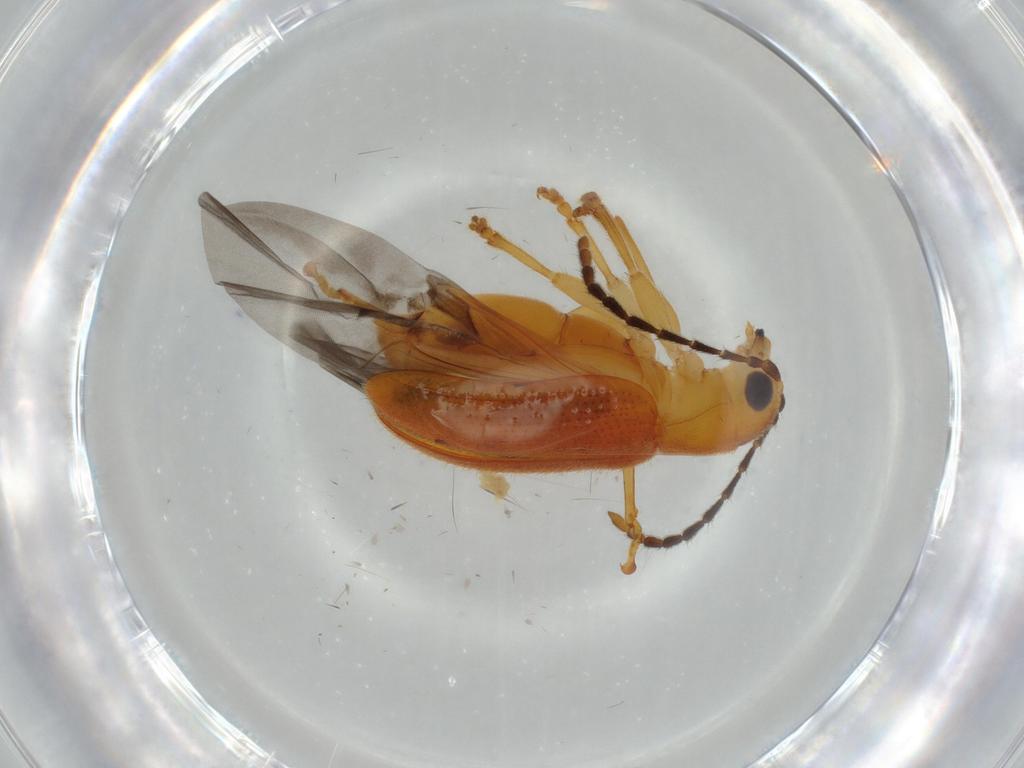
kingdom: Animalia
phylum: Arthropoda
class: Insecta
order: Coleoptera
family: Chrysomelidae
